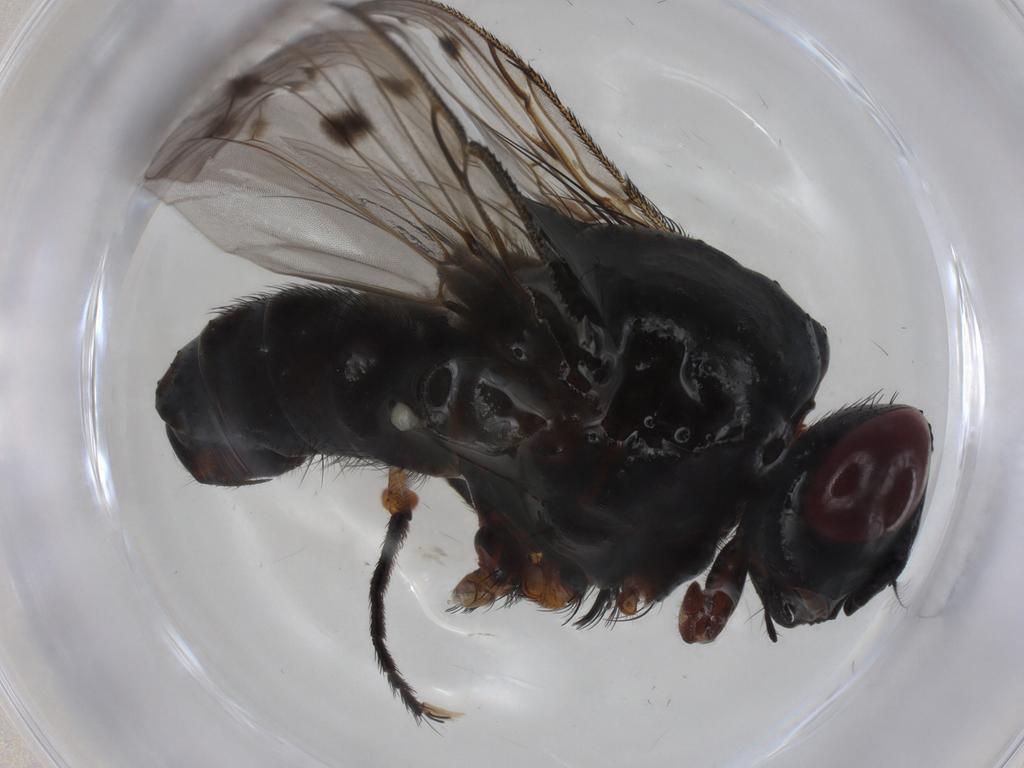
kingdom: Animalia
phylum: Arthropoda
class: Insecta
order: Diptera
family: Muscidae
